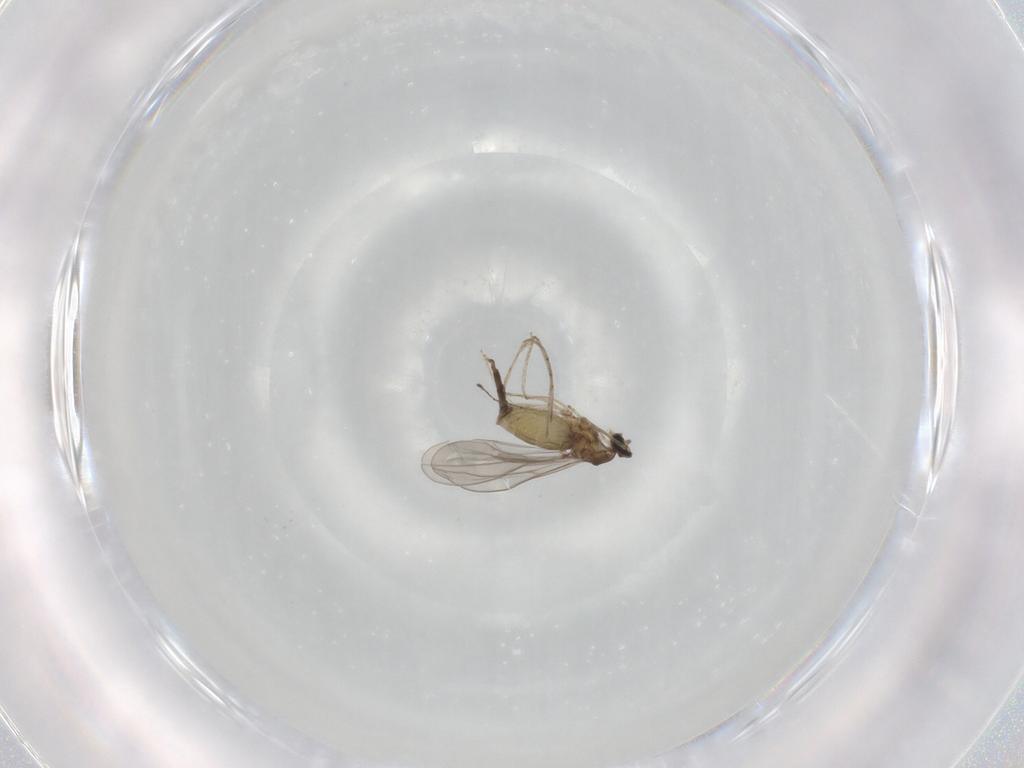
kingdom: Animalia
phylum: Arthropoda
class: Insecta
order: Diptera
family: Cecidomyiidae
